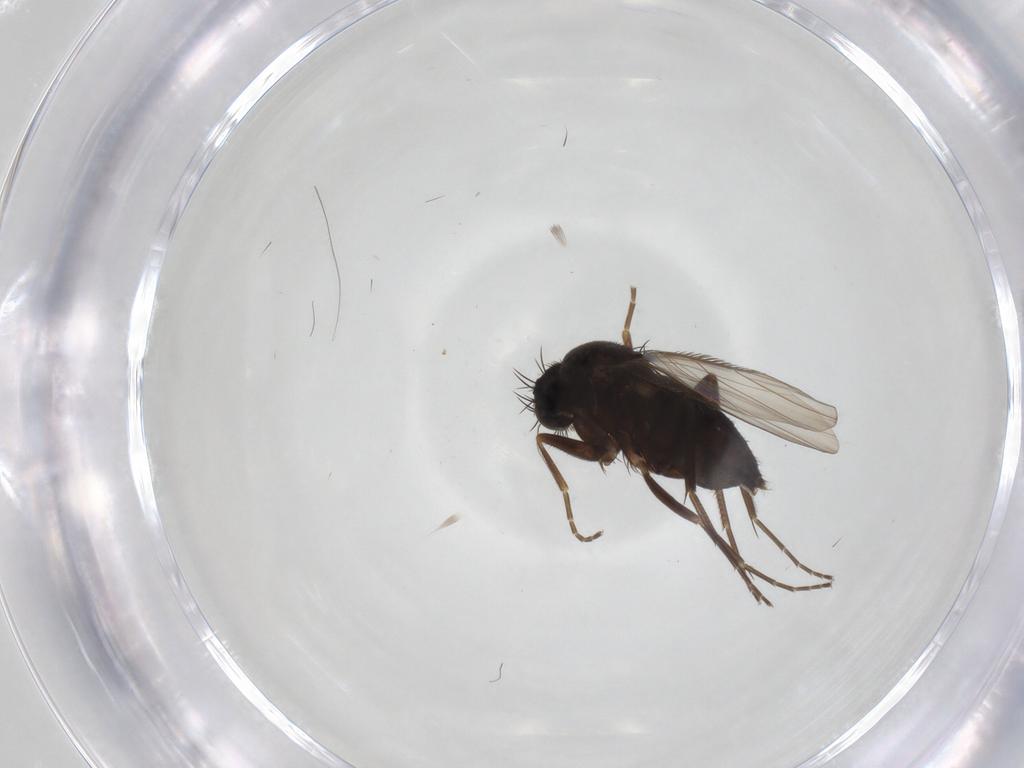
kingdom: Animalia
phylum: Arthropoda
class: Insecta
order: Diptera
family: Phoridae
